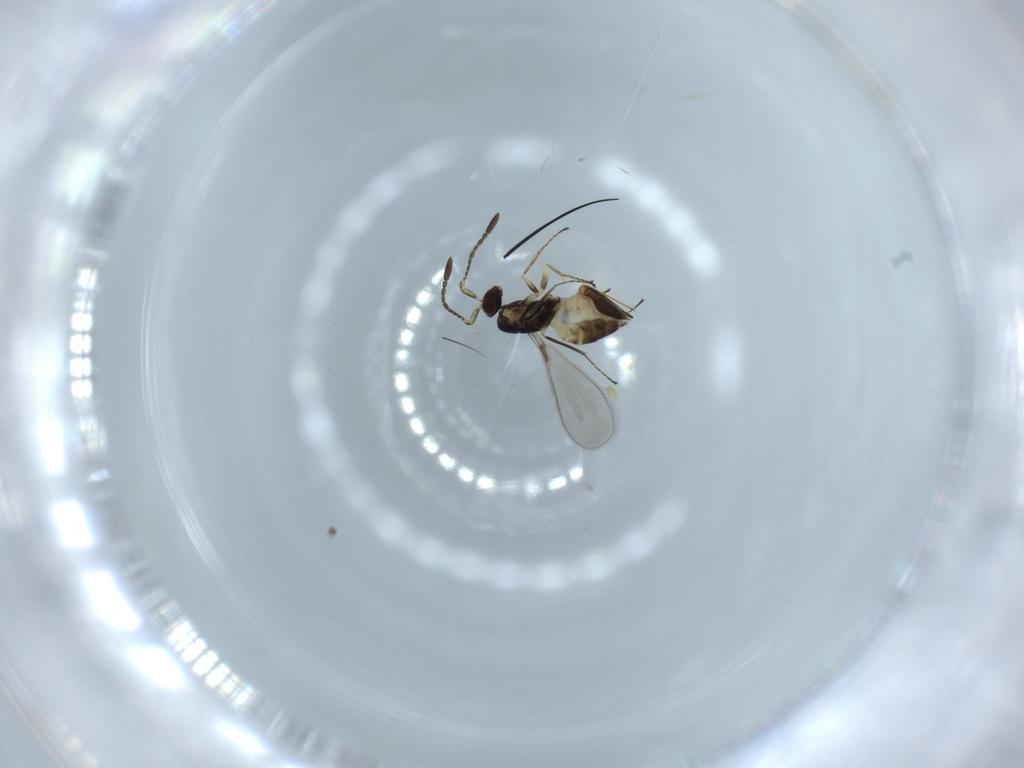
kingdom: Animalia
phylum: Arthropoda
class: Insecta
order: Hymenoptera
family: Mymaridae
